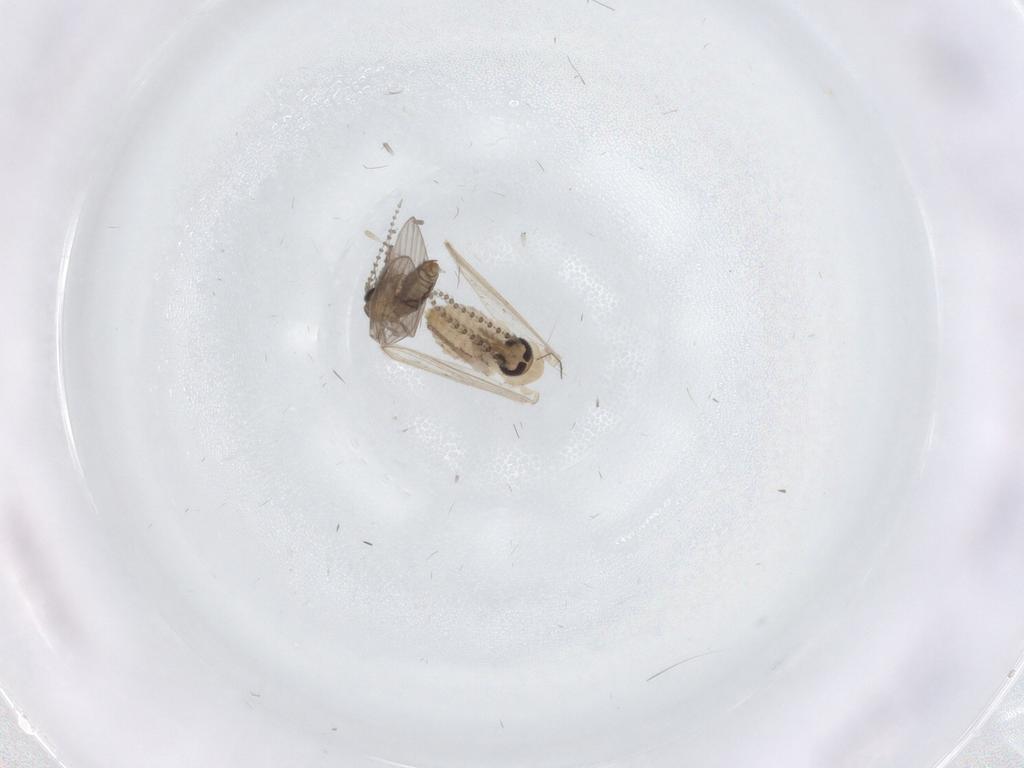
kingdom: Animalia
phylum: Arthropoda
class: Insecta
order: Diptera
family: Psychodidae
